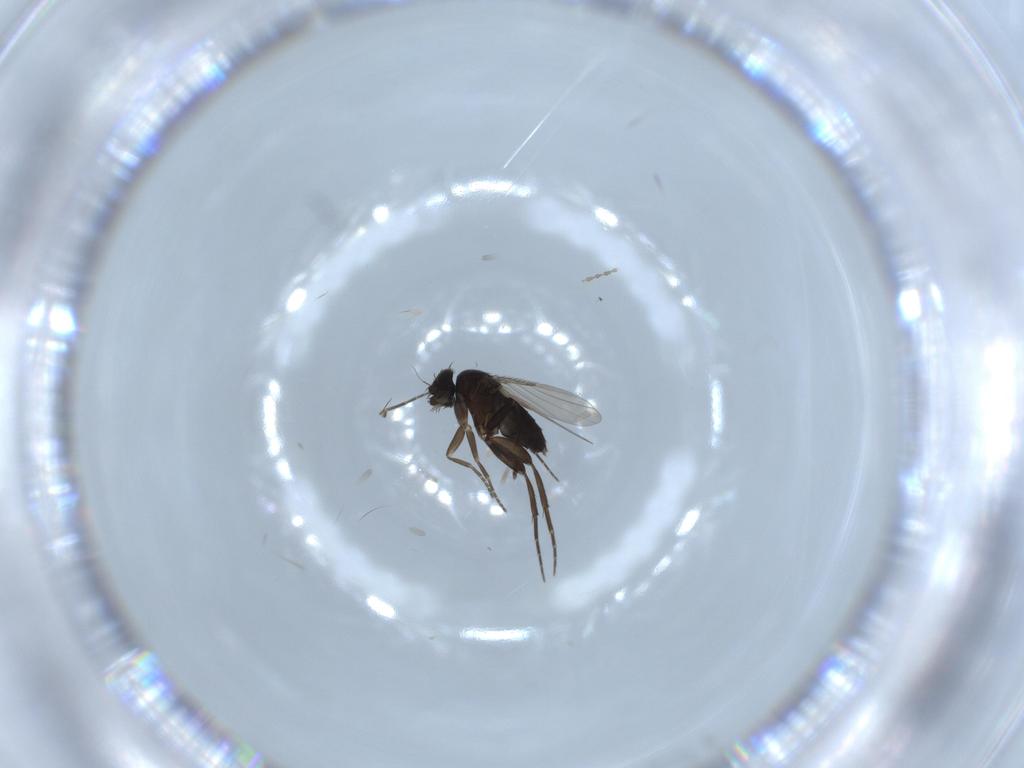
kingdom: Animalia
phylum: Arthropoda
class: Insecta
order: Diptera
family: Phoridae
